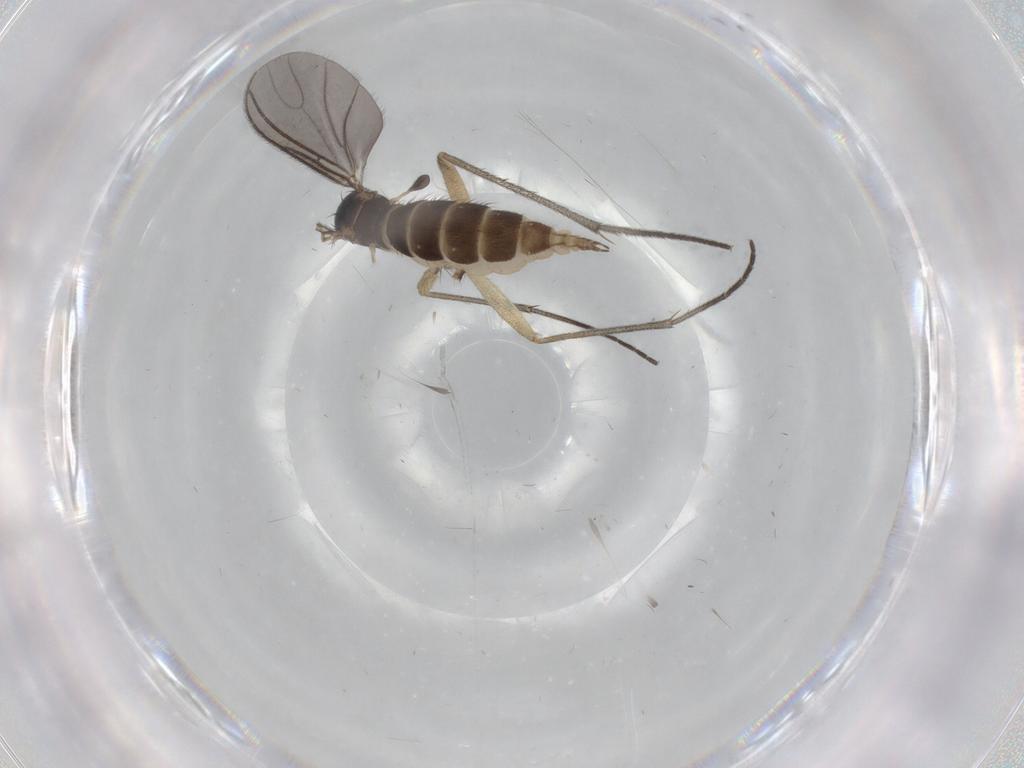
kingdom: Animalia
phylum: Arthropoda
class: Insecta
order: Diptera
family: Sciaridae
